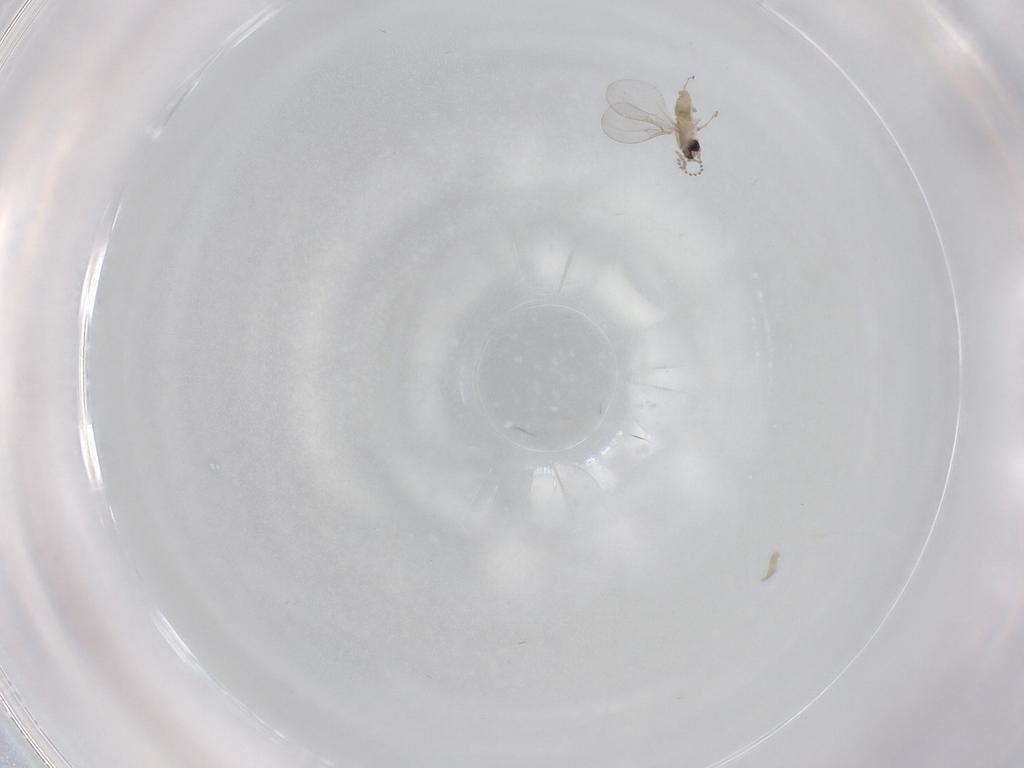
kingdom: Animalia
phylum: Arthropoda
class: Insecta
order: Diptera
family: Cecidomyiidae
